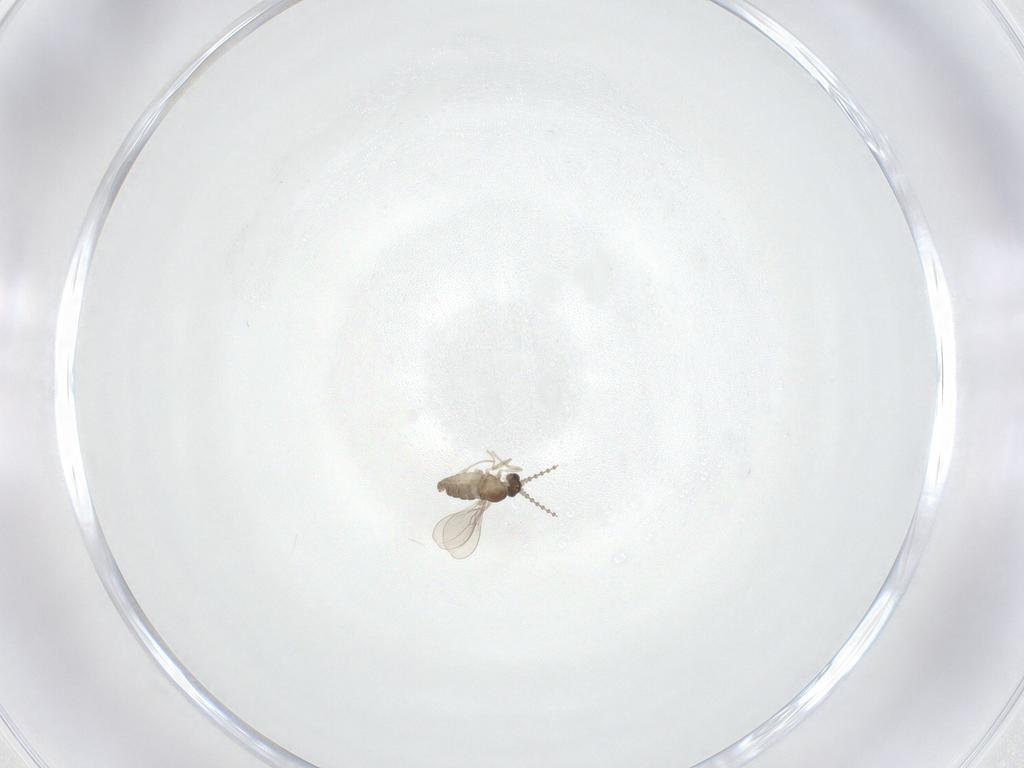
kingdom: Animalia
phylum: Arthropoda
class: Insecta
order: Diptera
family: Cecidomyiidae
